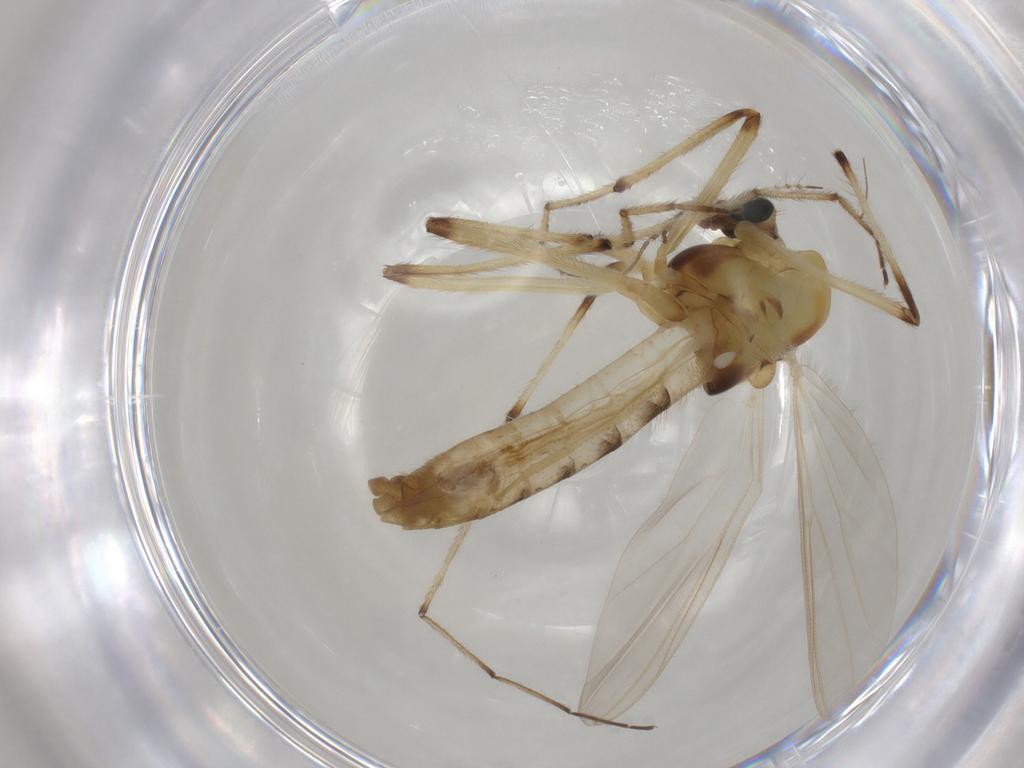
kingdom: Animalia
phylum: Arthropoda
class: Insecta
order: Diptera
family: Chironomidae
